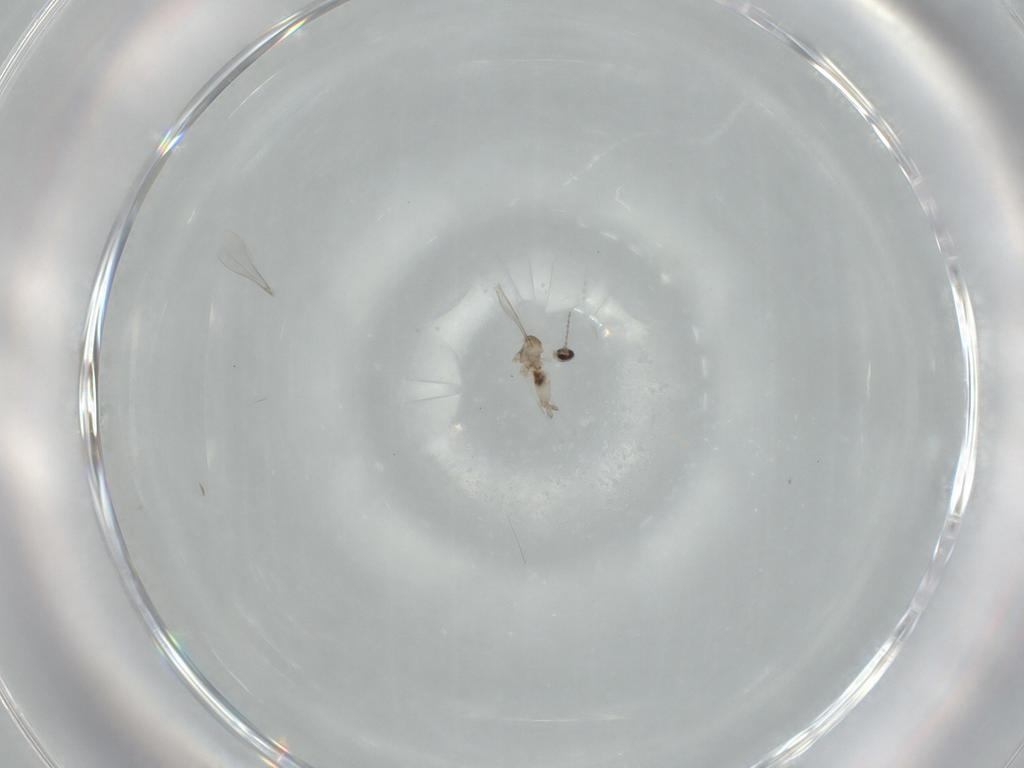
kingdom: Animalia
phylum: Arthropoda
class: Insecta
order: Diptera
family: Cecidomyiidae
